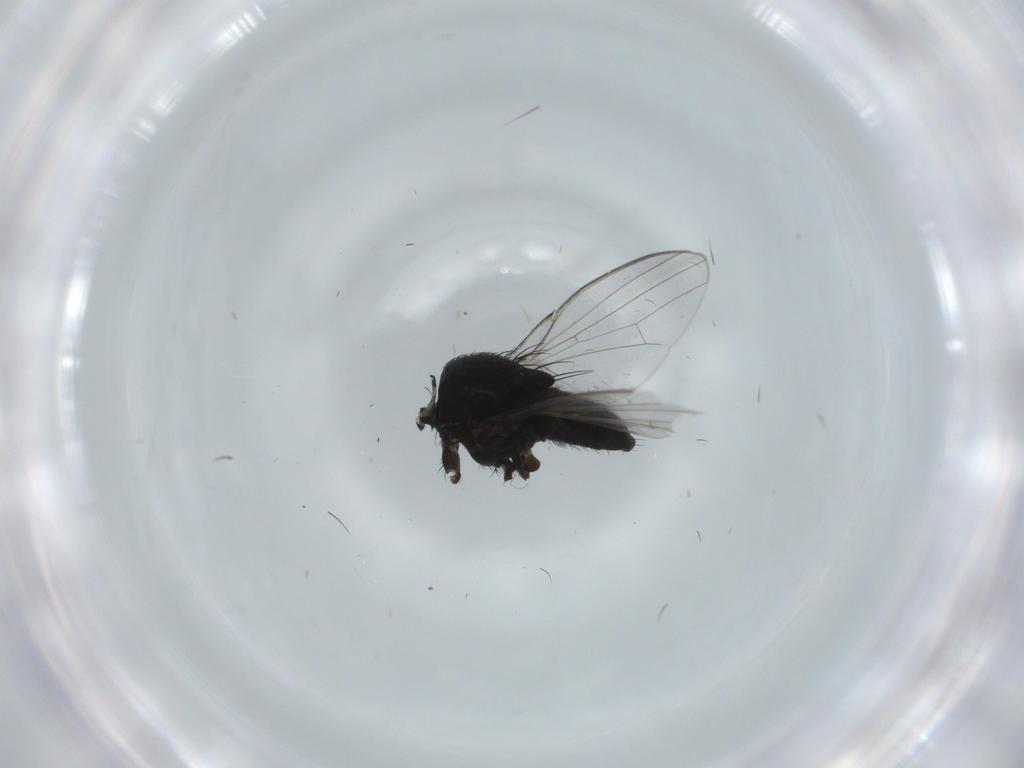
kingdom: Animalia
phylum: Arthropoda
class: Insecta
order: Diptera
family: Milichiidae
